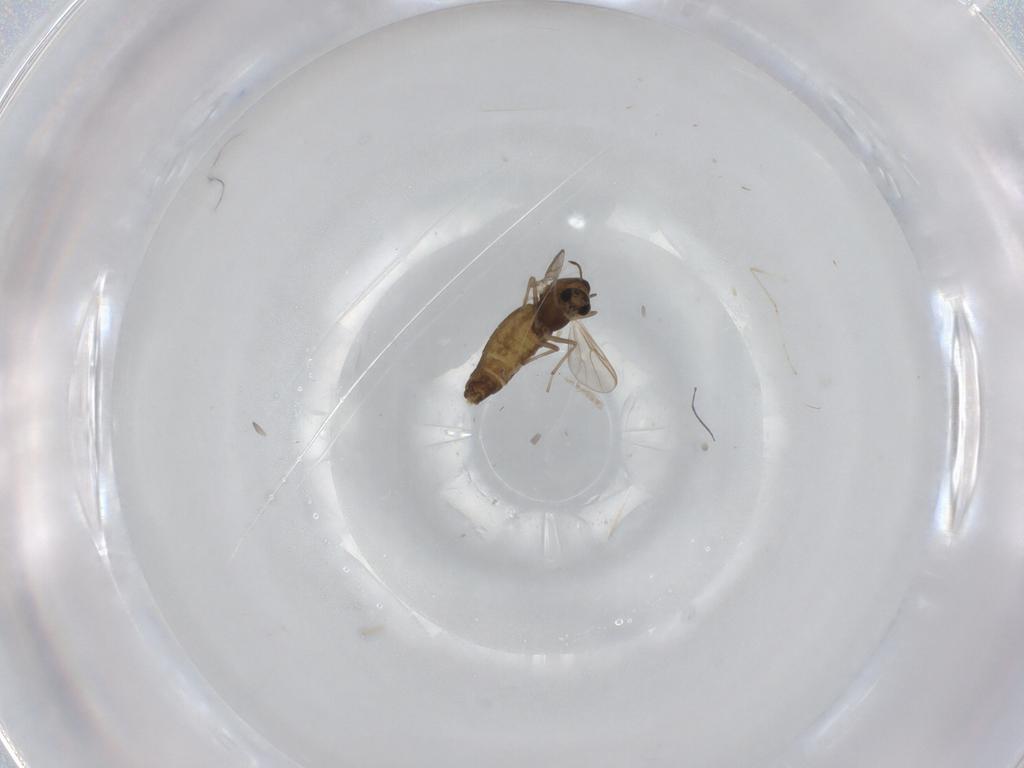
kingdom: Animalia
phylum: Arthropoda
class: Insecta
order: Diptera
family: Chironomidae
